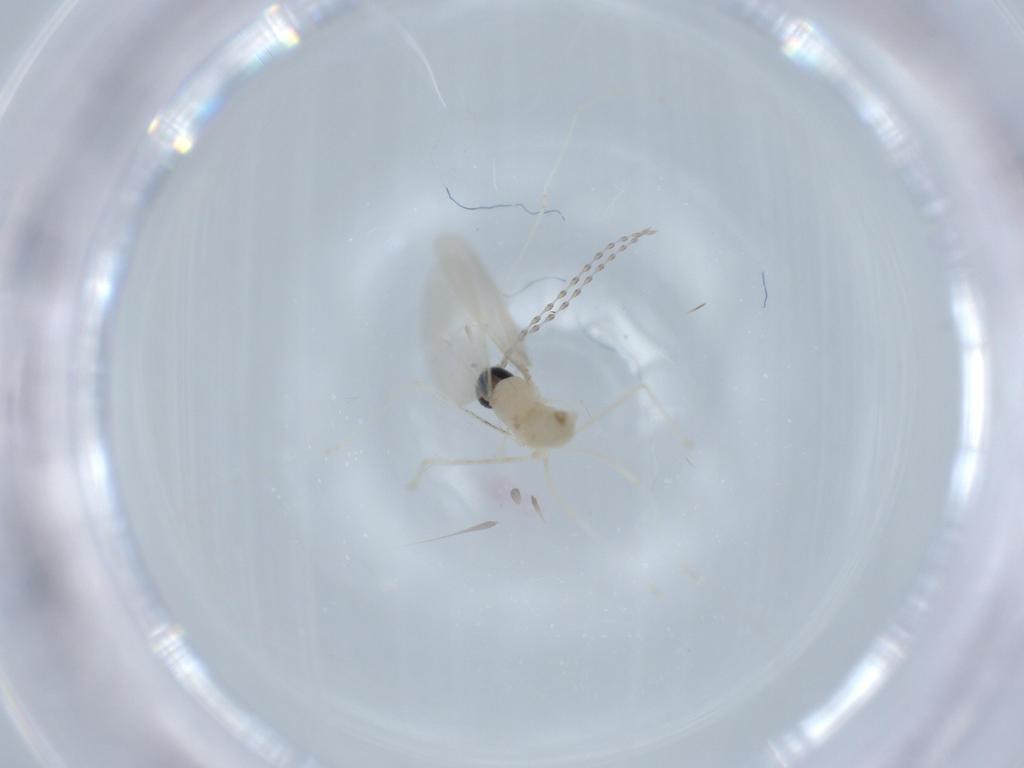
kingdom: Animalia
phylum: Arthropoda
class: Insecta
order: Diptera
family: Cecidomyiidae
